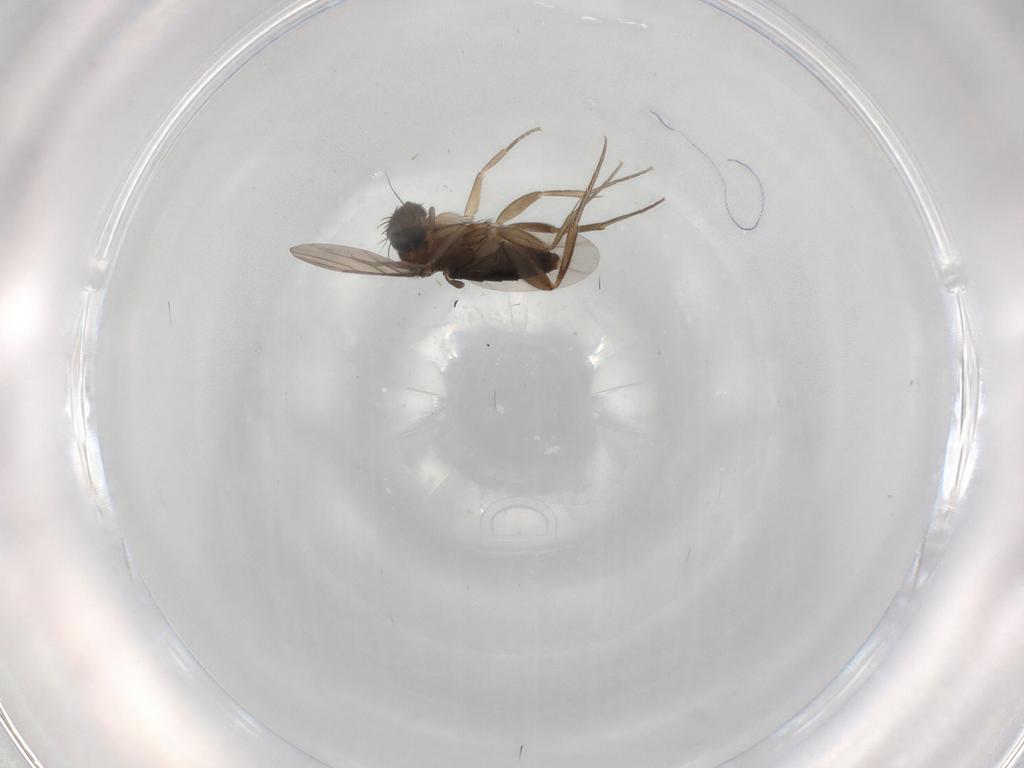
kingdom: Animalia
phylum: Arthropoda
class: Insecta
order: Diptera
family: Phoridae
